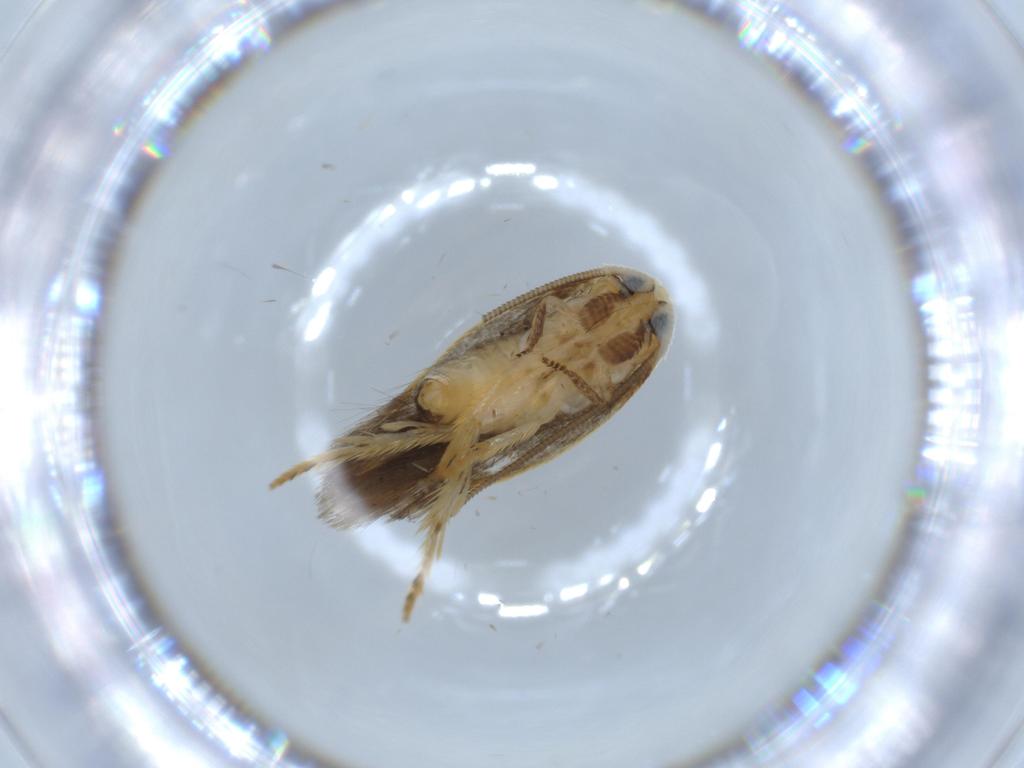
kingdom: Animalia
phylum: Arthropoda
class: Insecta
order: Lepidoptera
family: Opostegidae
